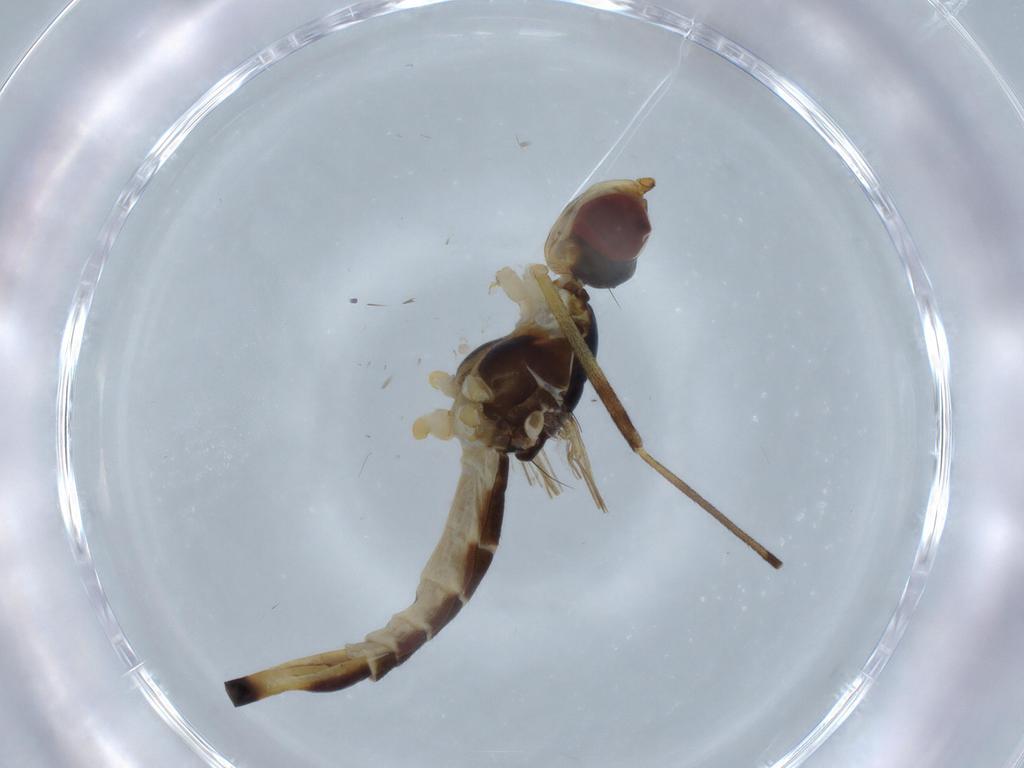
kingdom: Animalia
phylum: Arthropoda
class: Insecta
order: Diptera
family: Micropezidae
